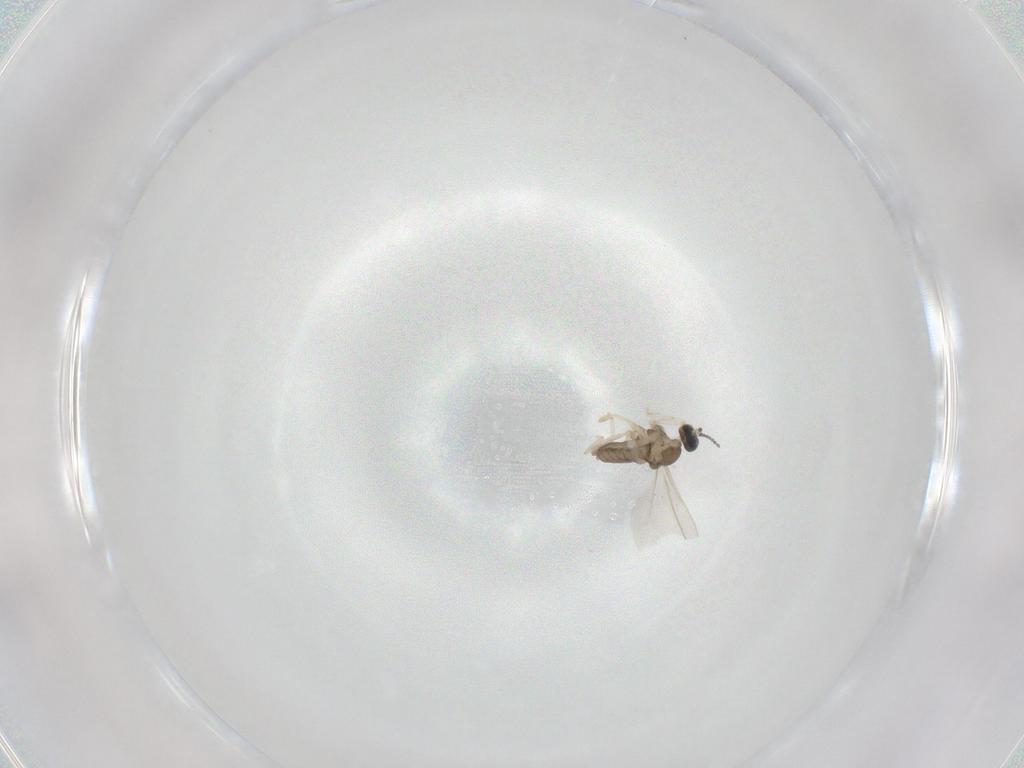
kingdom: Animalia
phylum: Arthropoda
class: Insecta
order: Diptera
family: Cecidomyiidae
